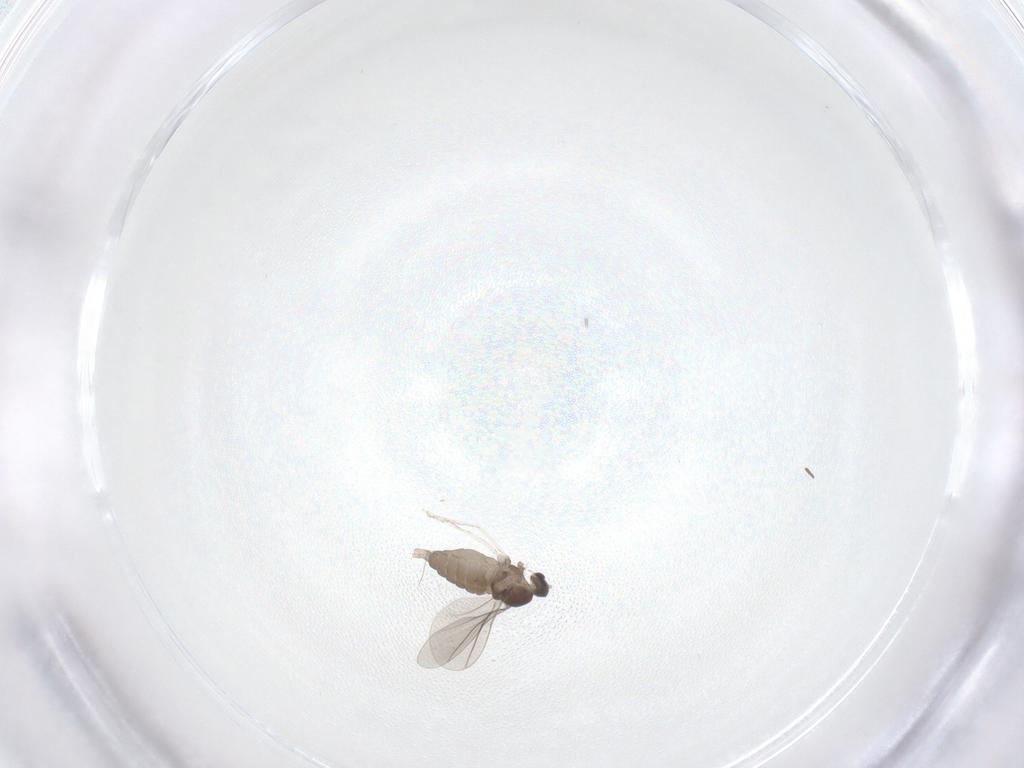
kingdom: Animalia
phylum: Arthropoda
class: Insecta
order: Diptera
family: Cecidomyiidae
